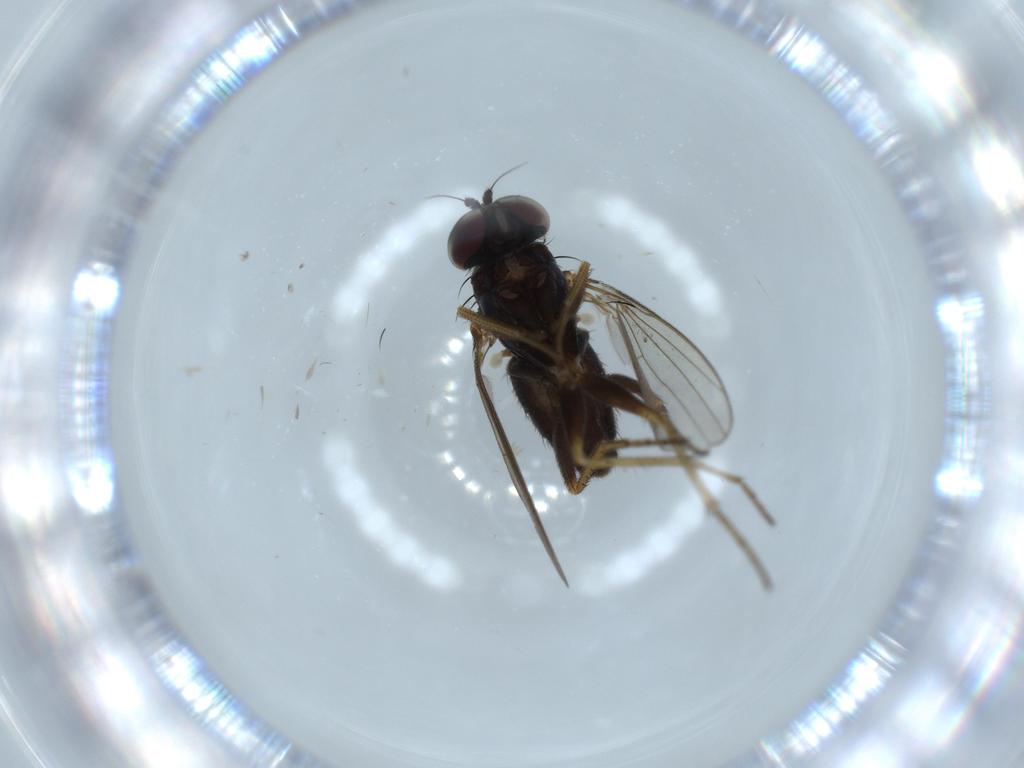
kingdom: Animalia
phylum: Arthropoda
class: Insecta
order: Diptera
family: Dolichopodidae
